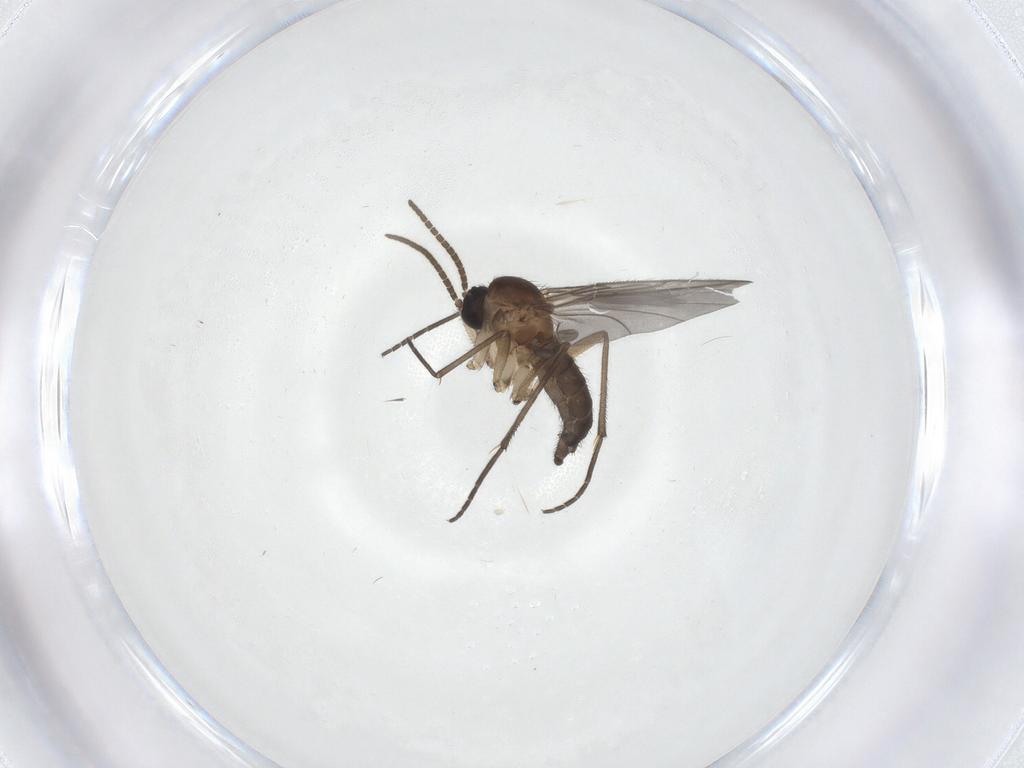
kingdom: Animalia
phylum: Arthropoda
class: Insecta
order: Diptera
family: Sciaridae
